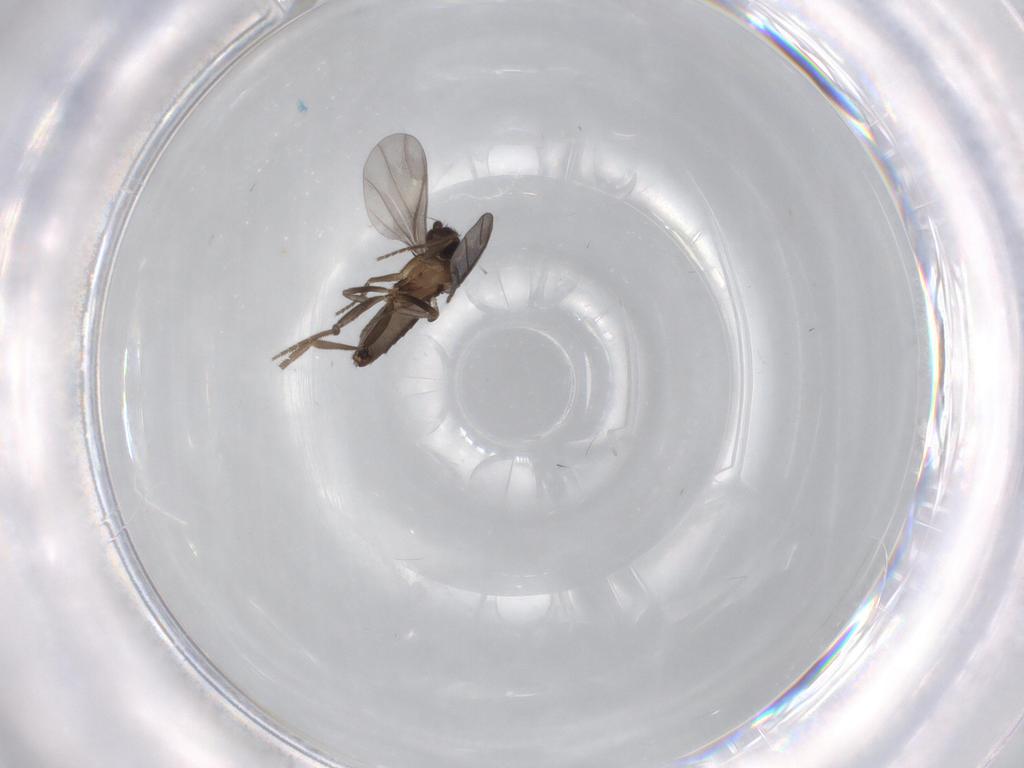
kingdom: Animalia
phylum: Arthropoda
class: Insecta
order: Diptera
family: Phoridae
